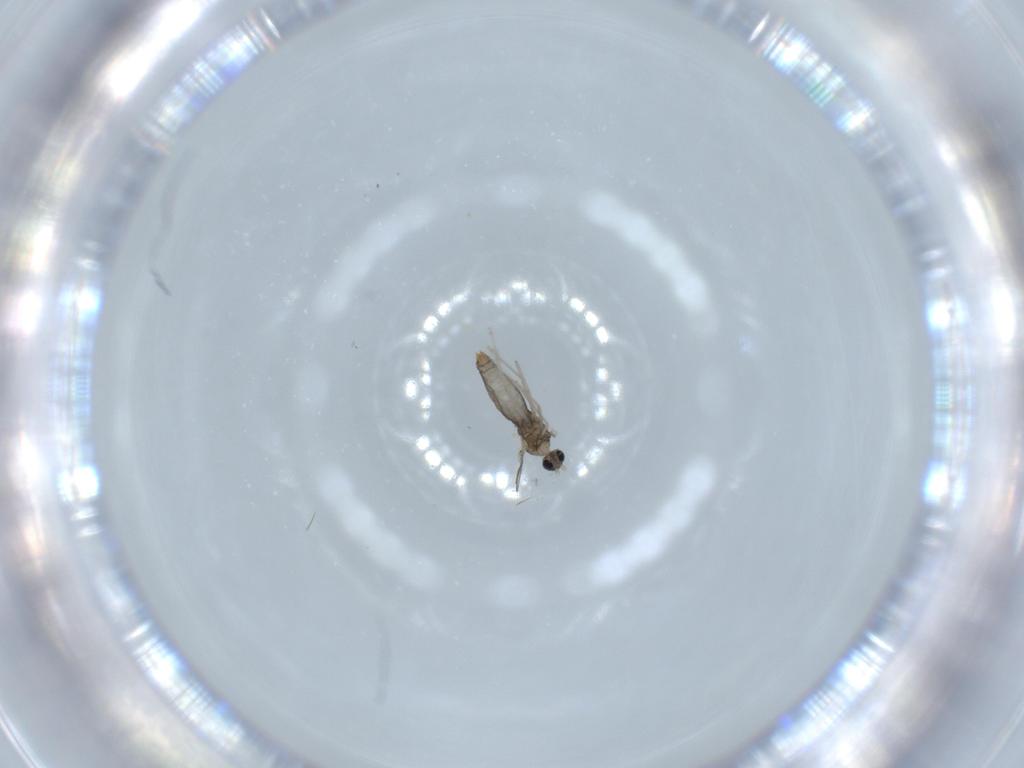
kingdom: Animalia
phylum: Arthropoda
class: Insecta
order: Diptera
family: Cecidomyiidae
